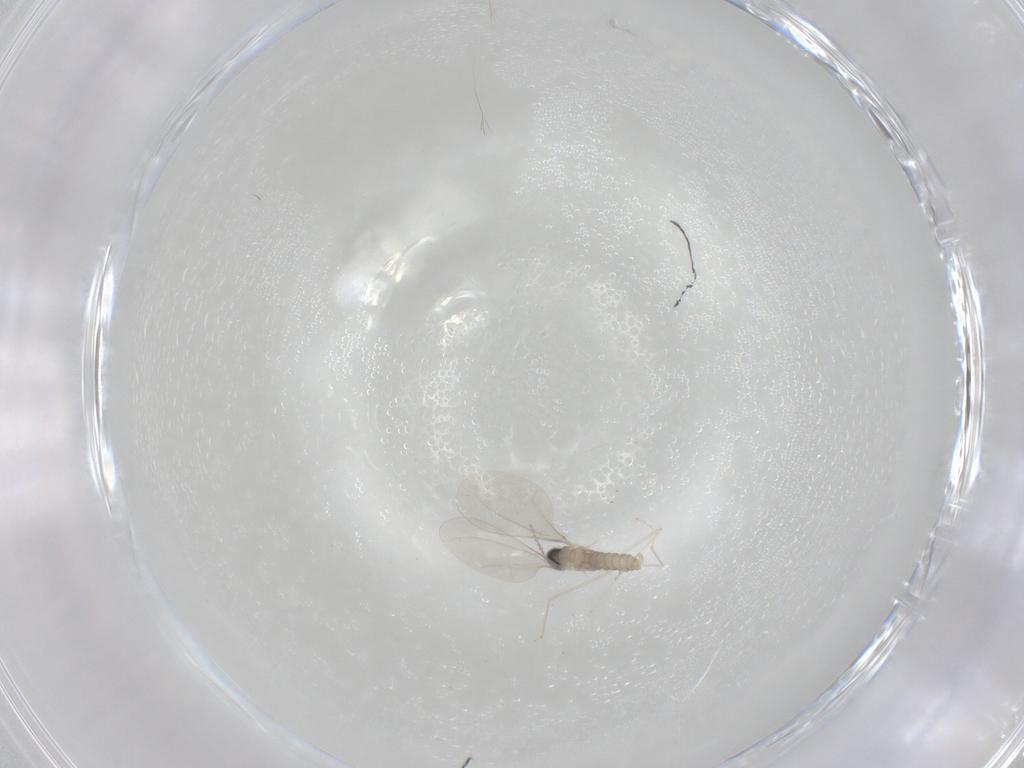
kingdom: Animalia
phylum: Arthropoda
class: Insecta
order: Diptera
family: Cecidomyiidae
